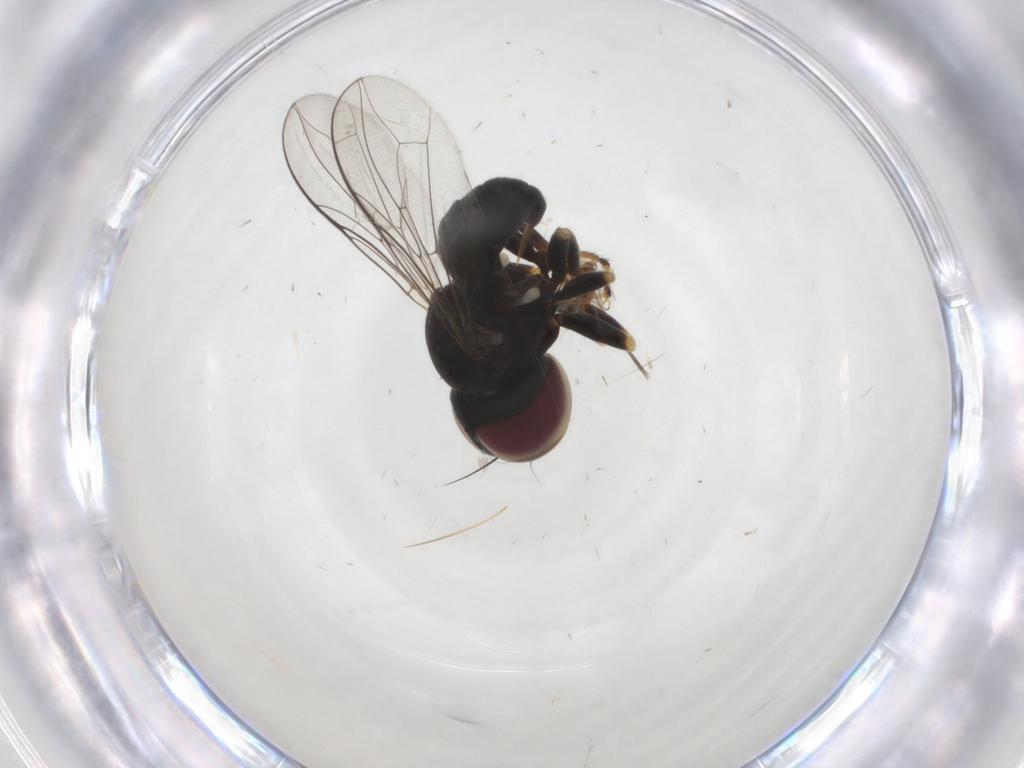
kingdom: Animalia
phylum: Arthropoda
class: Insecta
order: Diptera
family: Pipunculidae
